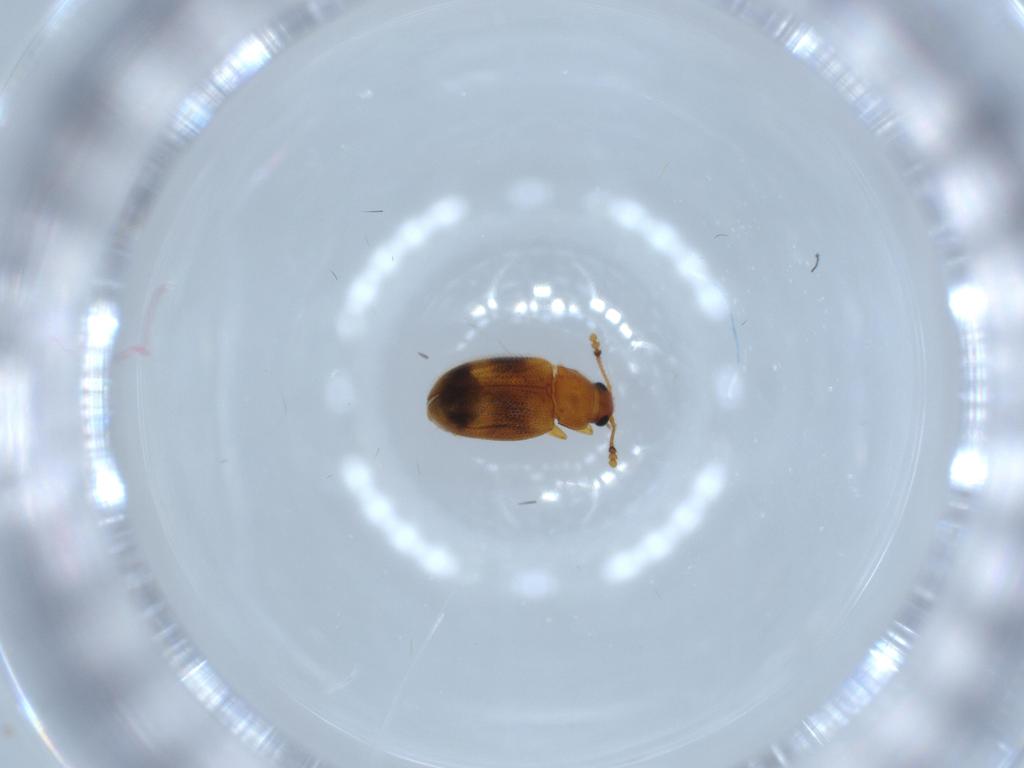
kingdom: Animalia
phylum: Arthropoda
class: Insecta
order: Coleoptera
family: Erotylidae
